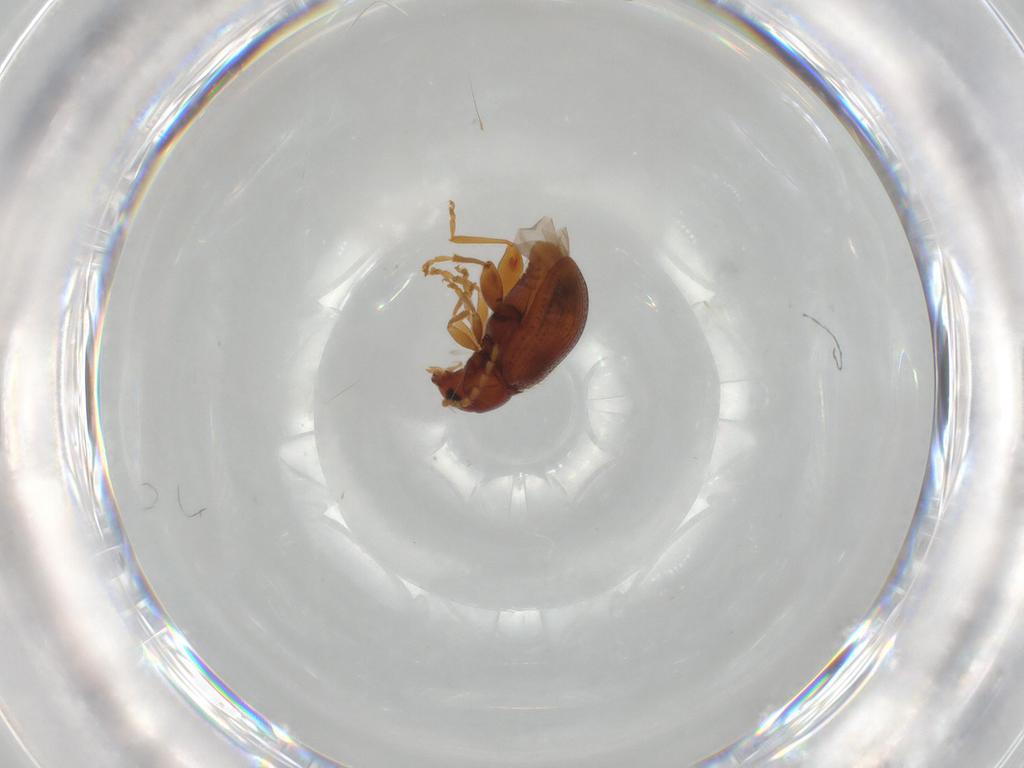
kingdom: Animalia
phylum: Arthropoda
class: Insecta
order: Coleoptera
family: Chrysomelidae
